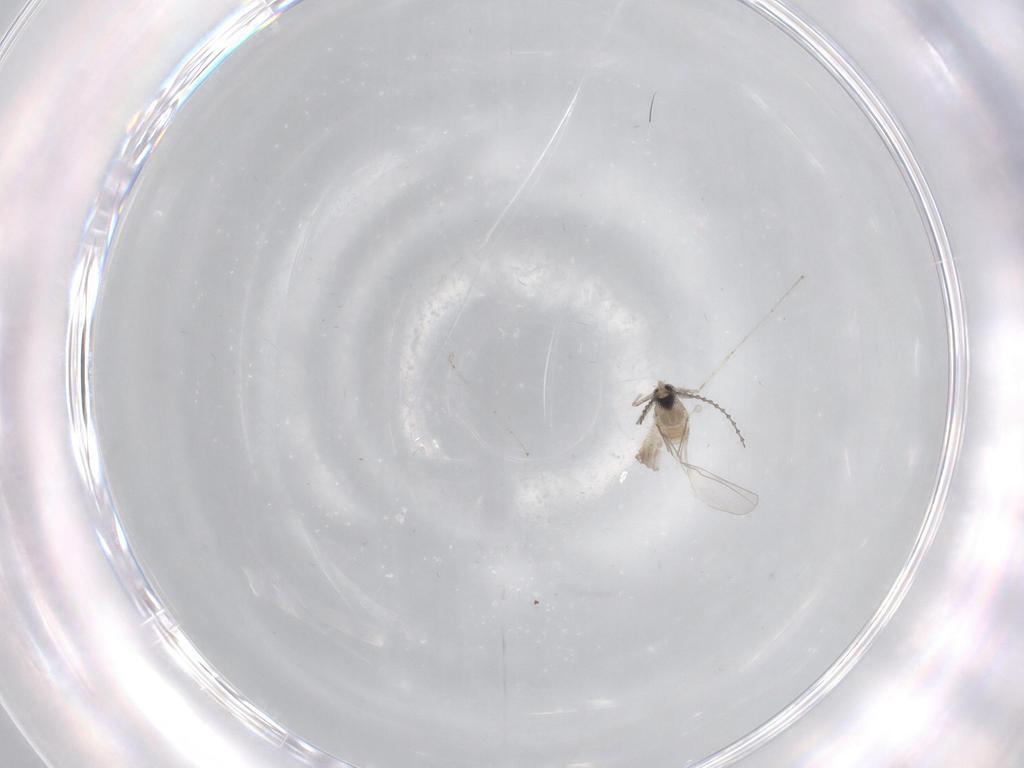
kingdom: Animalia
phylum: Arthropoda
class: Insecta
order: Diptera
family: Cecidomyiidae
